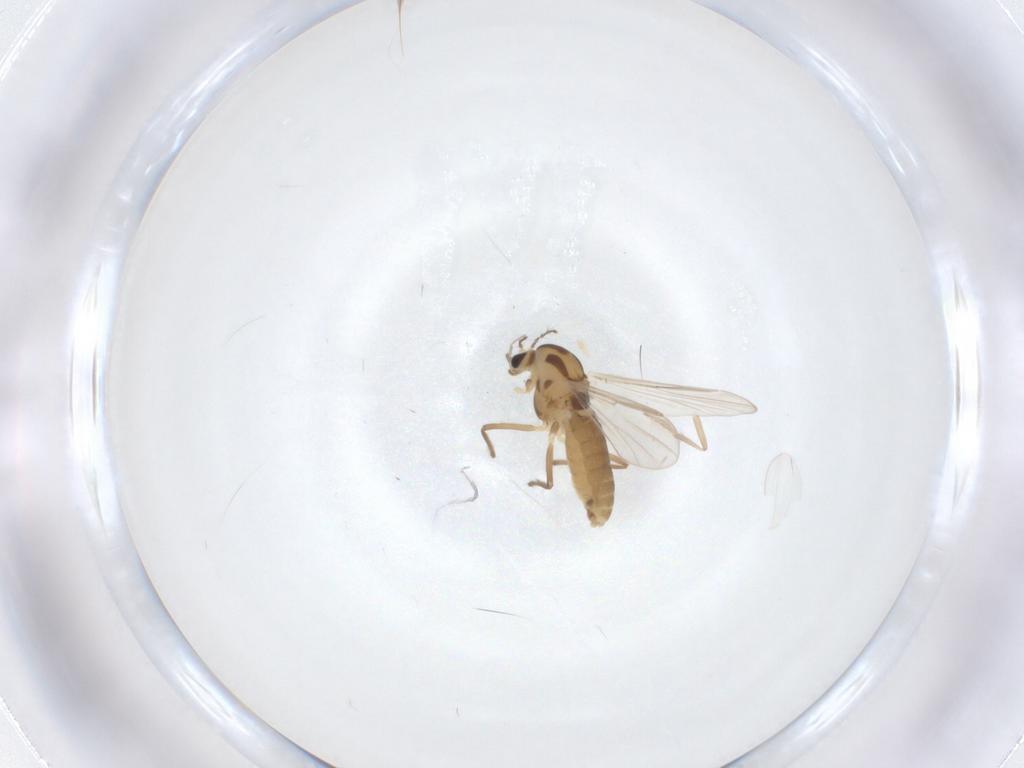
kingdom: Animalia
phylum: Arthropoda
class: Insecta
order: Diptera
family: Chironomidae
